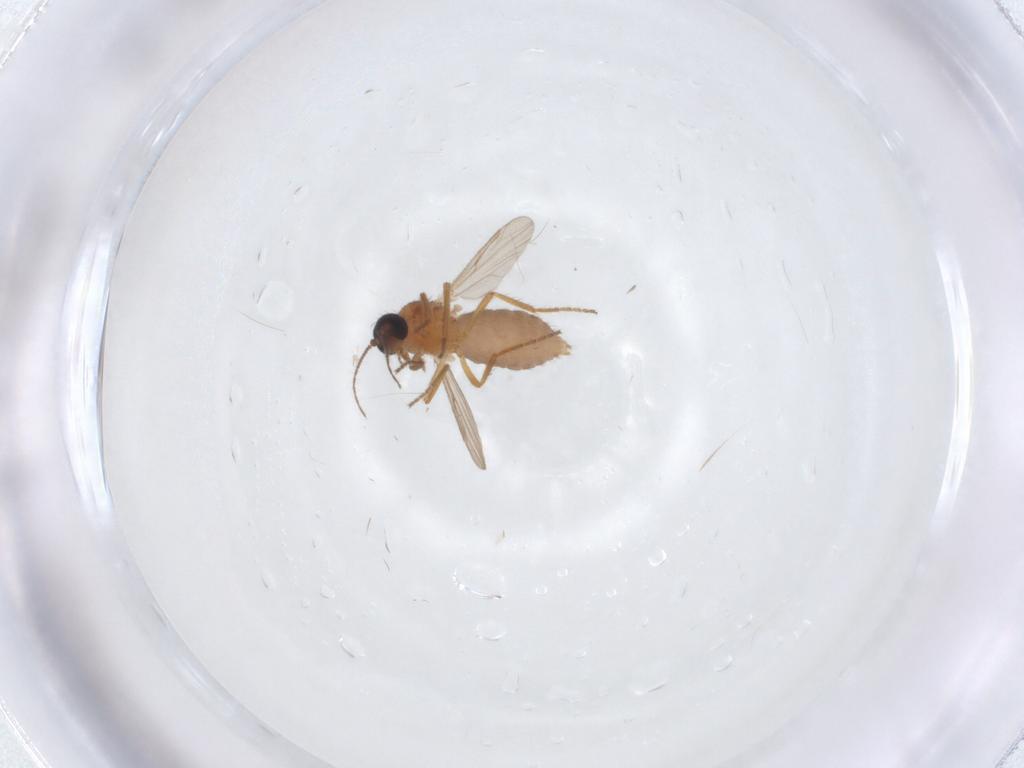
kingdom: Animalia
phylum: Arthropoda
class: Insecta
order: Diptera
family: Ceratopogonidae
